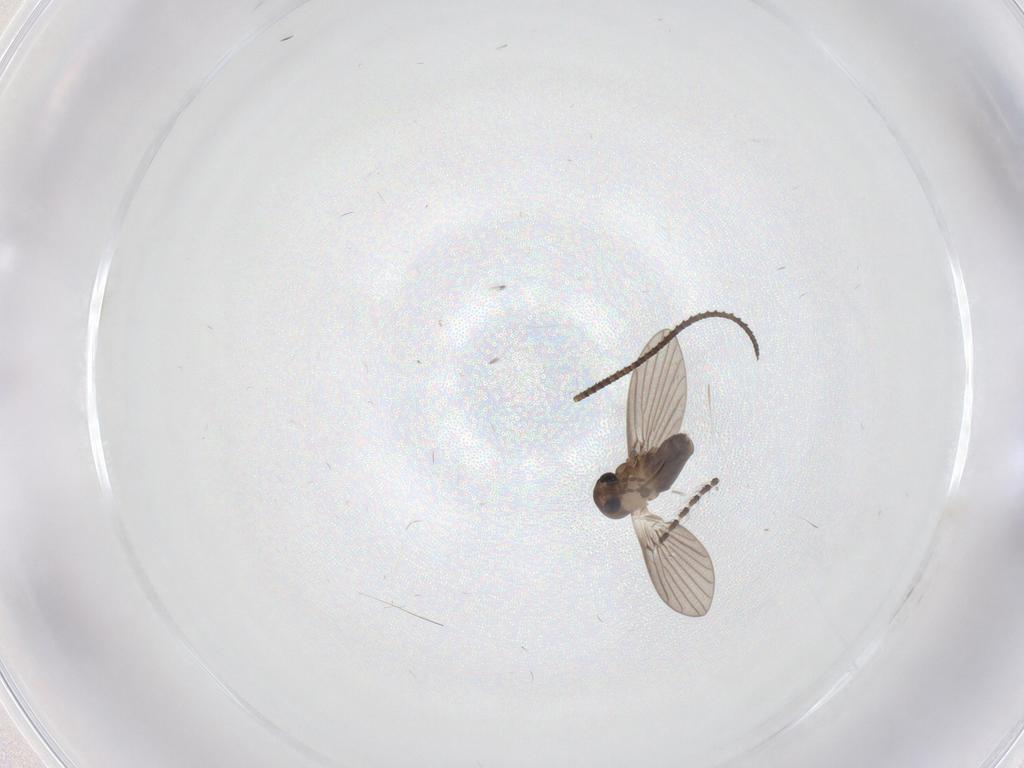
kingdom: Animalia
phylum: Arthropoda
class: Insecta
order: Diptera
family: Psychodidae
